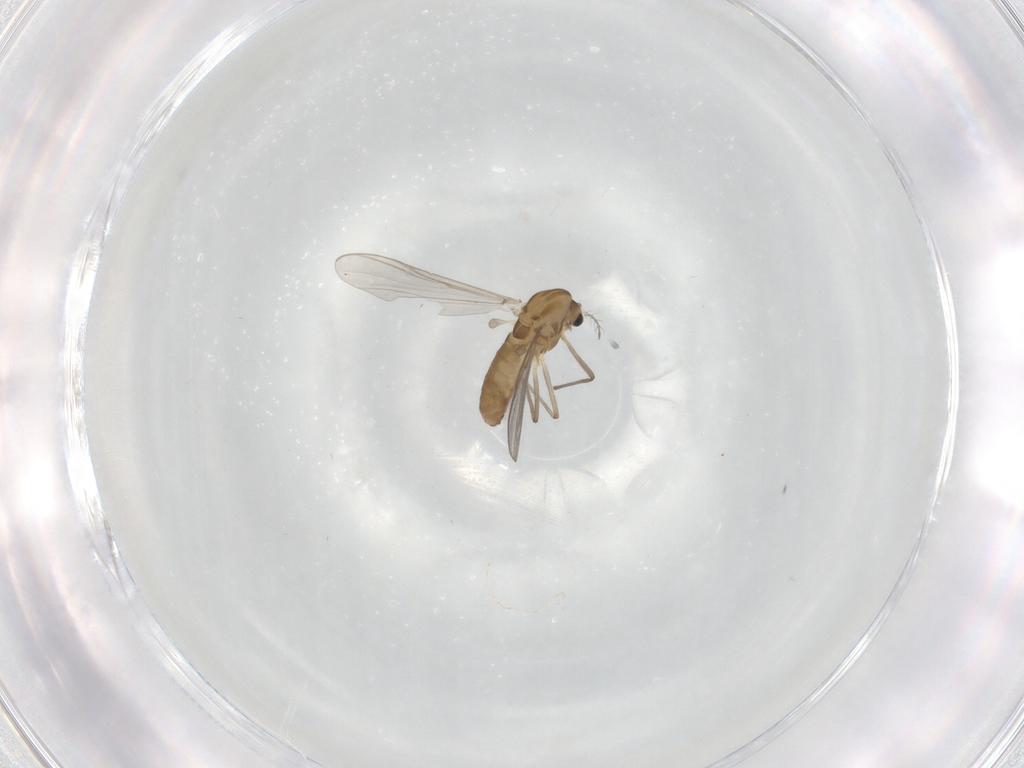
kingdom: Animalia
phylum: Arthropoda
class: Insecta
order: Diptera
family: Chironomidae
